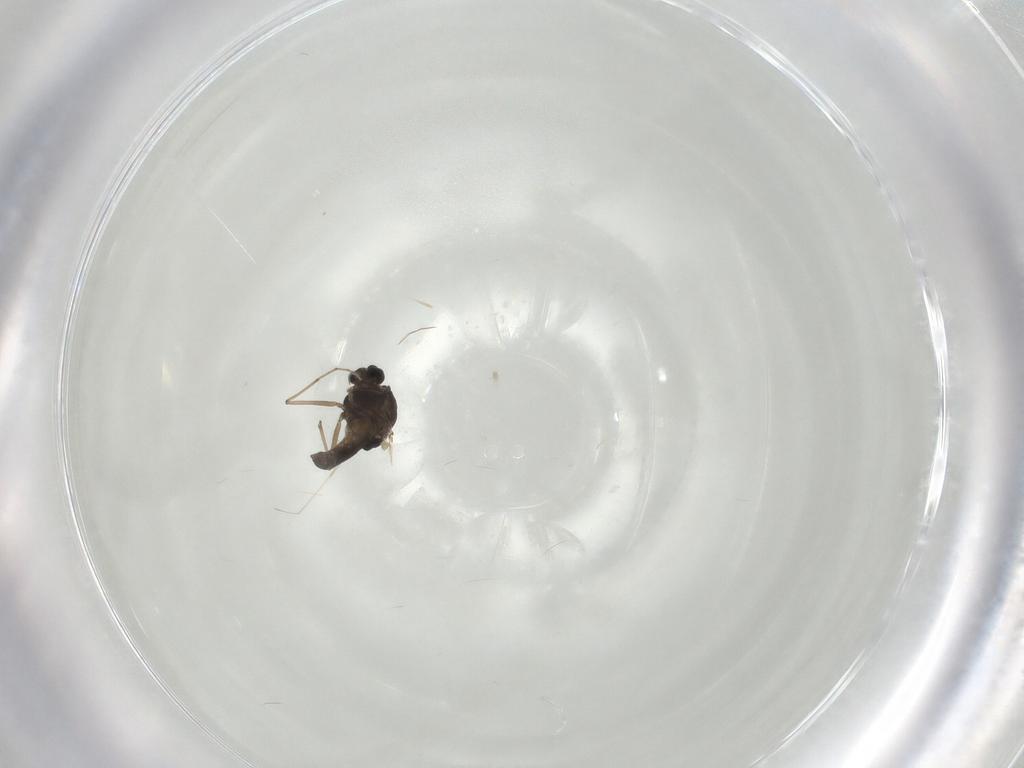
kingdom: Animalia
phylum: Arthropoda
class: Insecta
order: Diptera
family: Chironomidae
